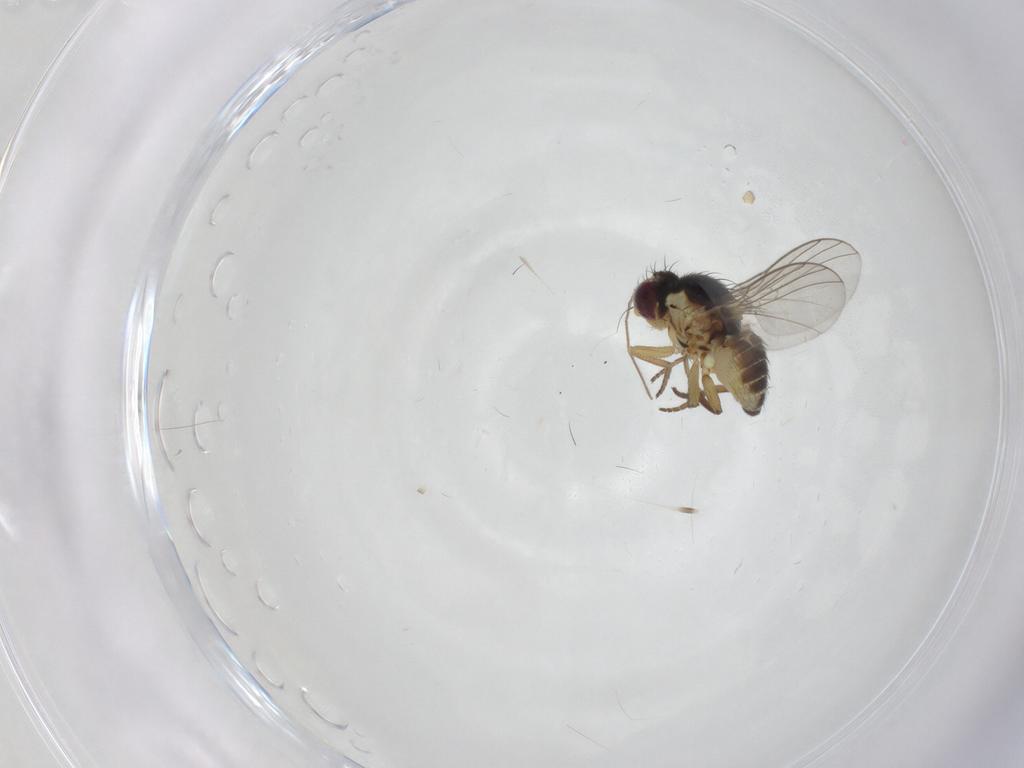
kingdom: Animalia
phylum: Arthropoda
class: Insecta
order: Diptera
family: Agromyzidae
